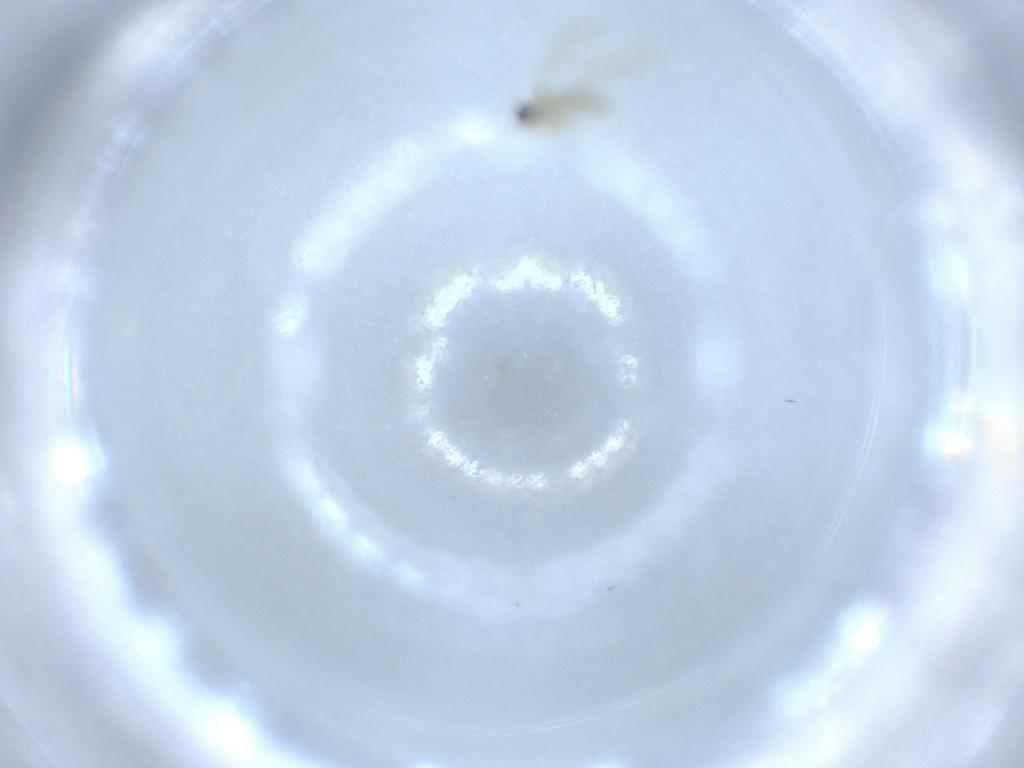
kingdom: Animalia
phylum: Arthropoda
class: Insecta
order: Diptera
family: Cecidomyiidae
